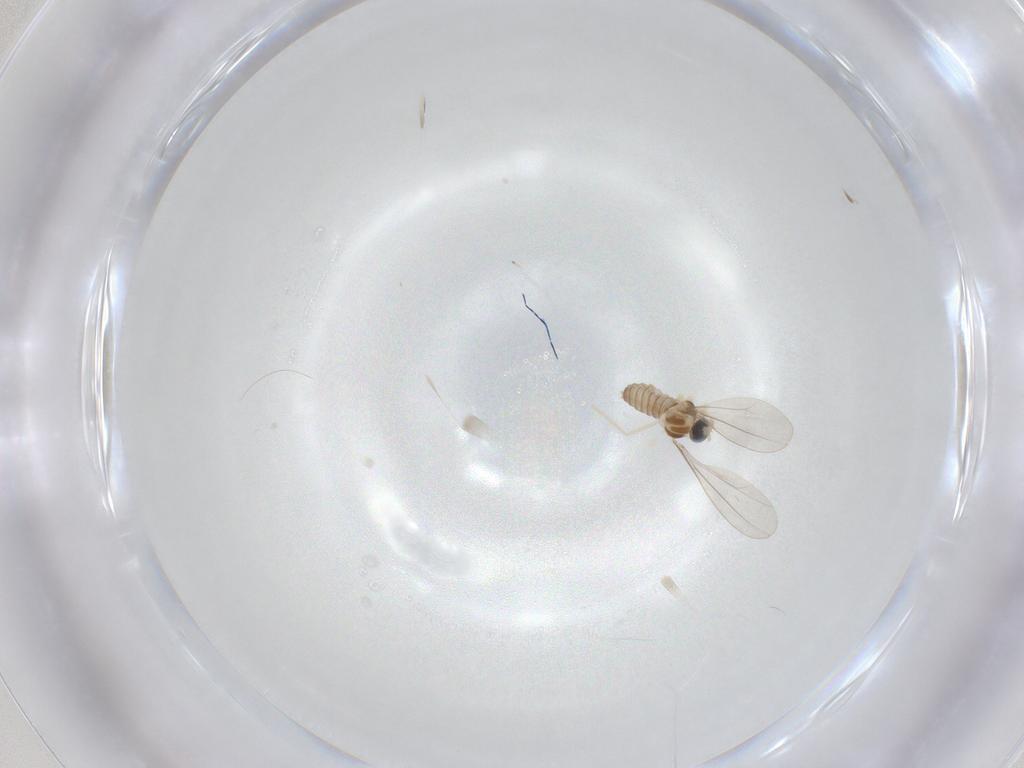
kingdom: Animalia
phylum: Arthropoda
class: Insecta
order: Diptera
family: Cecidomyiidae
